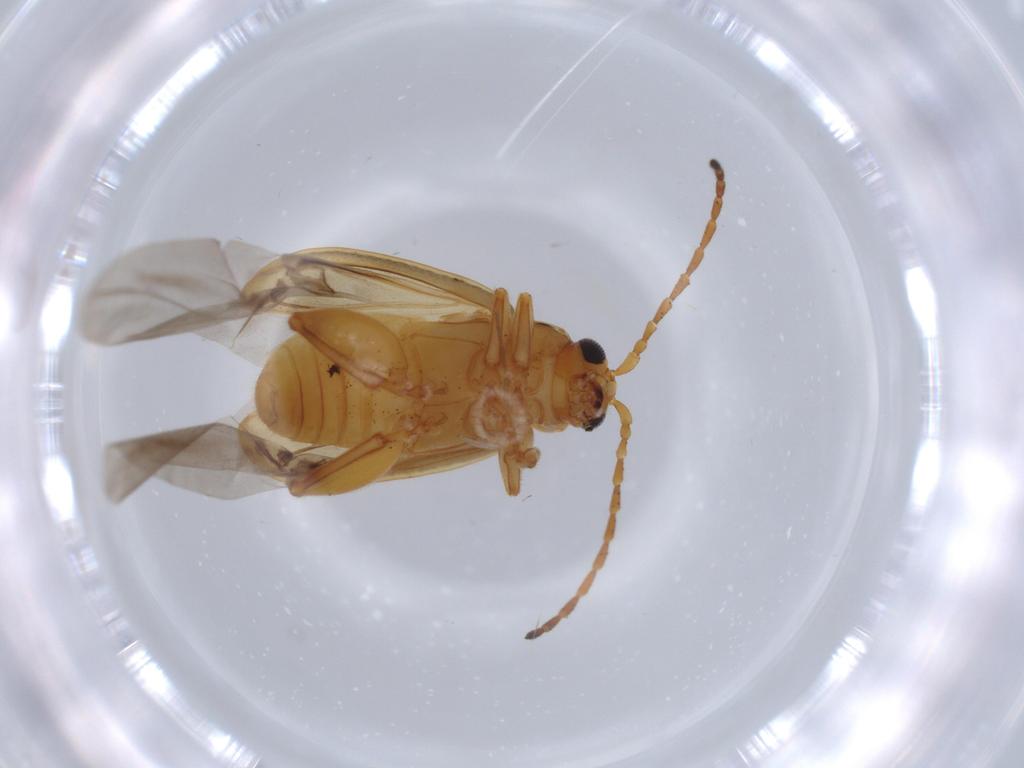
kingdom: Animalia
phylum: Arthropoda
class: Insecta
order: Coleoptera
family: Chrysomelidae
